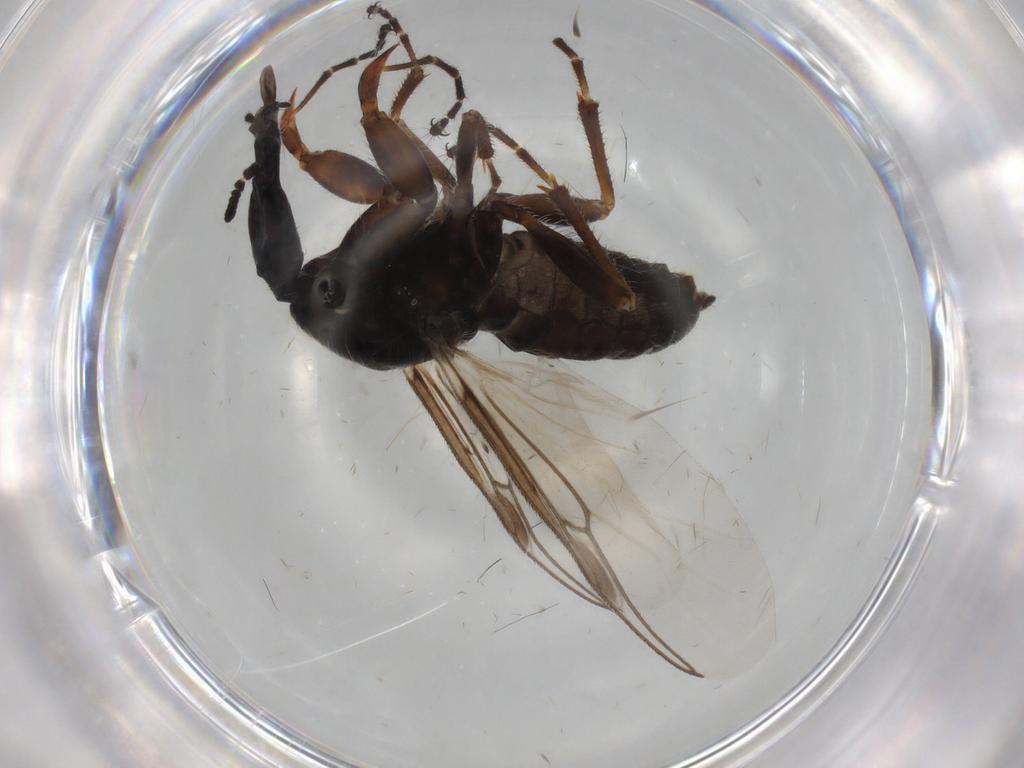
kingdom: Animalia
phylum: Arthropoda
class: Insecta
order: Diptera
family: Bibionidae
